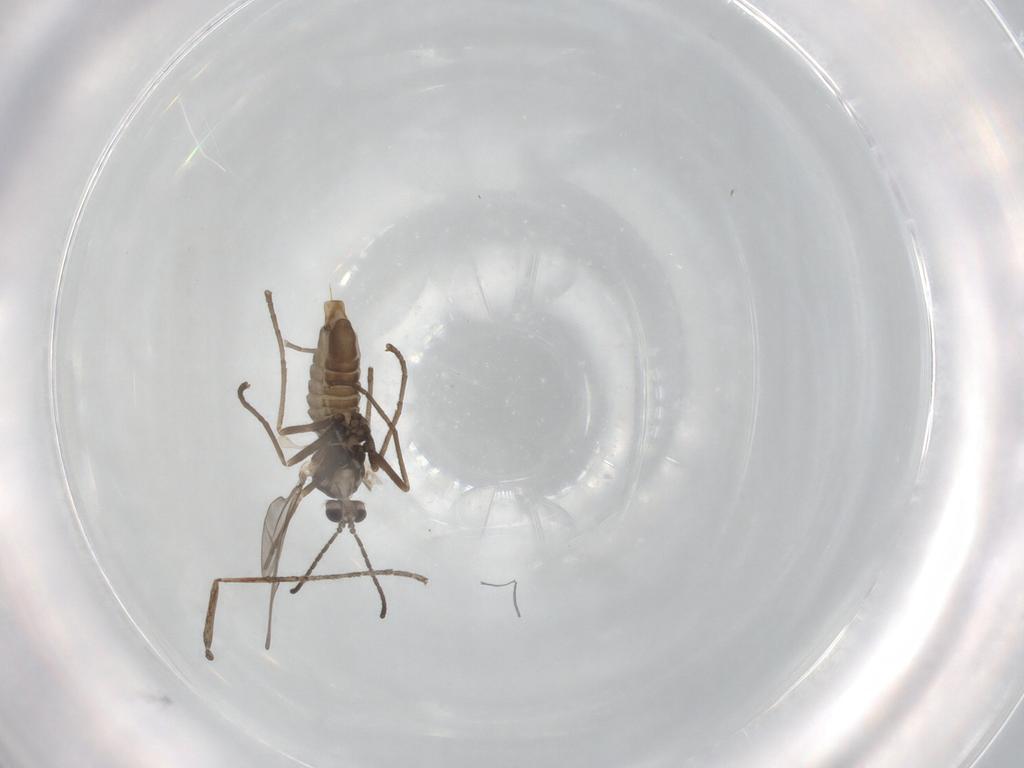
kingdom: Animalia
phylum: Arthropoda
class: Insecta
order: Diptera
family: Cecidomyiidae
